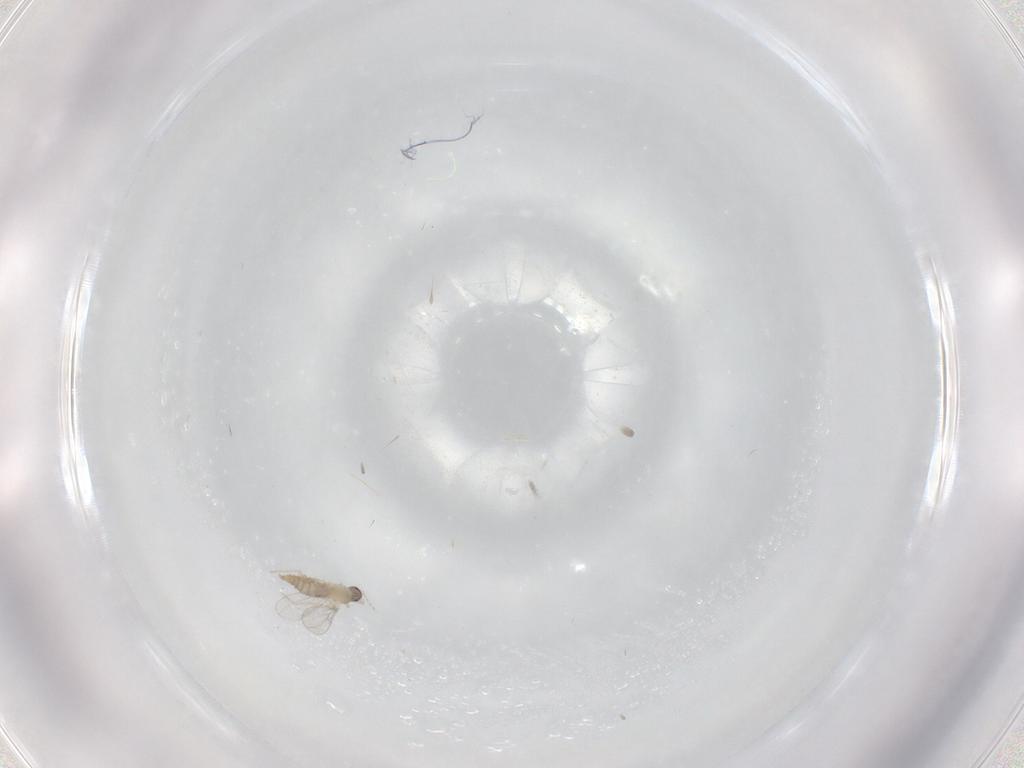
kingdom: Animalia
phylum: Arthropoda
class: Insecta
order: Diptera
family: Cecidomyiidae
